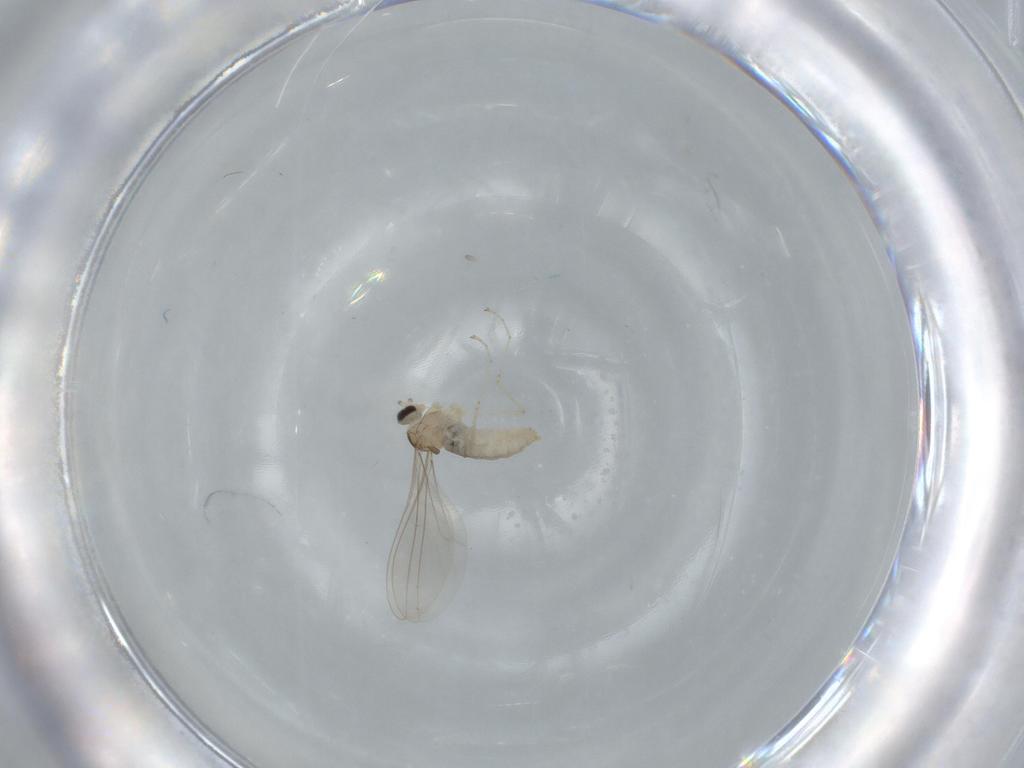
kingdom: Animalia
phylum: Arthropoda
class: Insecta
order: Diptera
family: Cecidomyiidae
